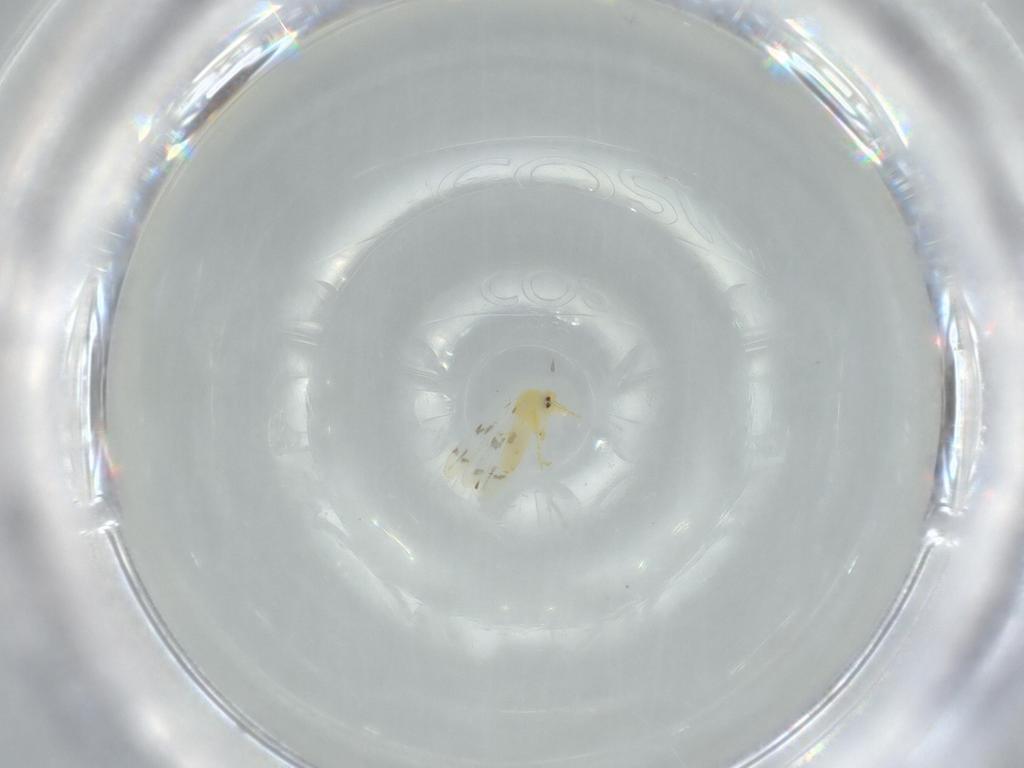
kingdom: Animalia
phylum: Arthropoda
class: Insecta
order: Hemiptera
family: Aleyrodidae
